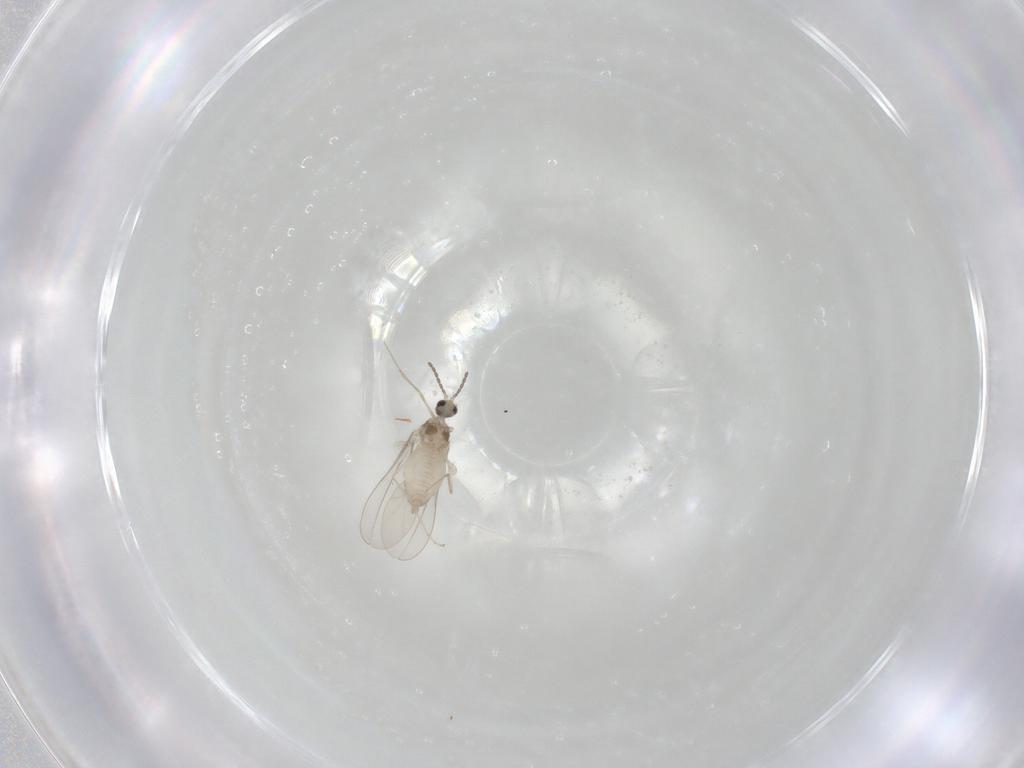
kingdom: Animalia
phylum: Arthropoda
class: Insecta
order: Diptera
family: Cecidomyiidae
